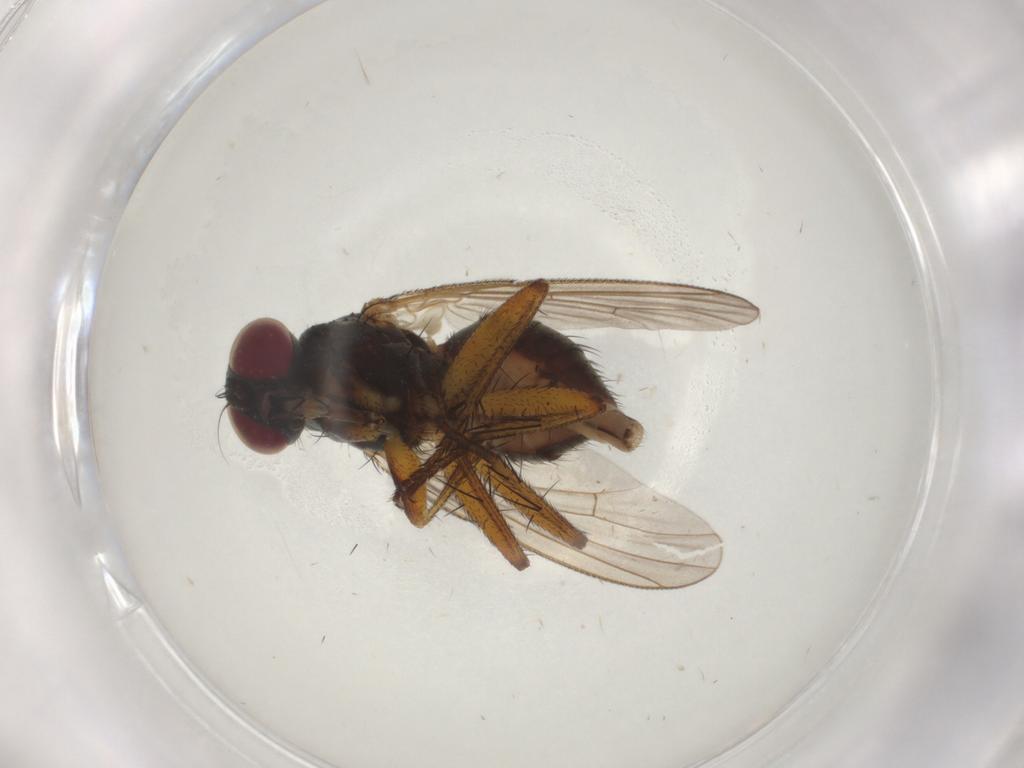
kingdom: Animalia
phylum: Arthropoda
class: Insecta
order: Diptera
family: Muscidae
